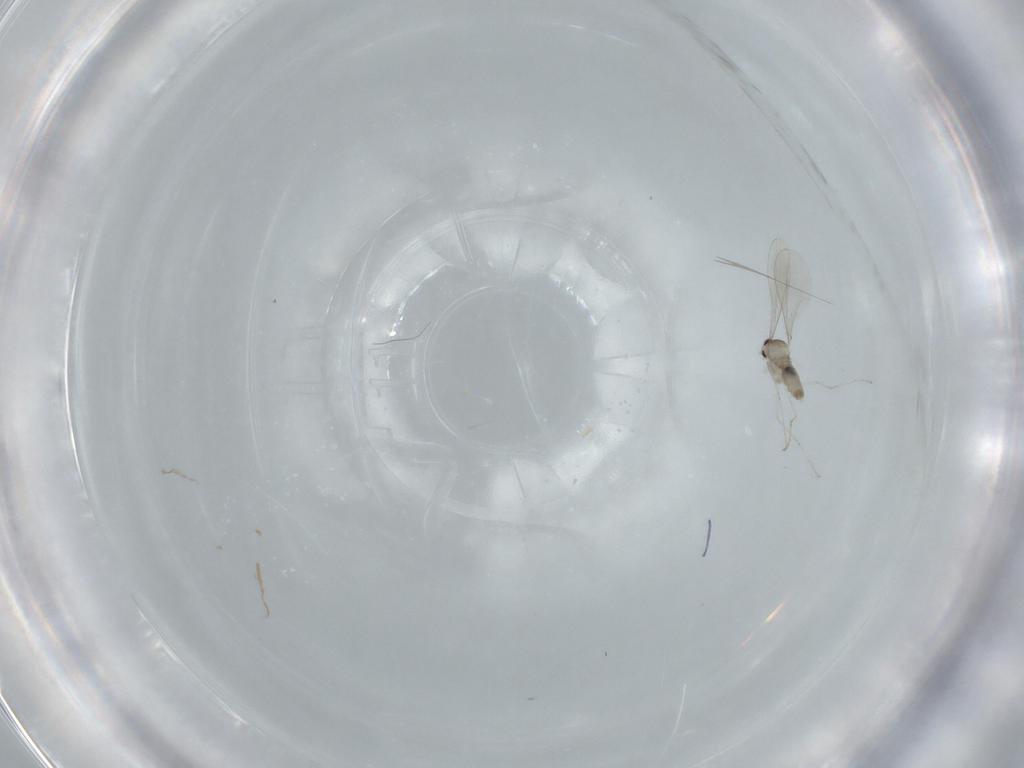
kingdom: Animalia
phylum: Arthropoda
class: Insecta
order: Diptera
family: Cecidomyiidae
